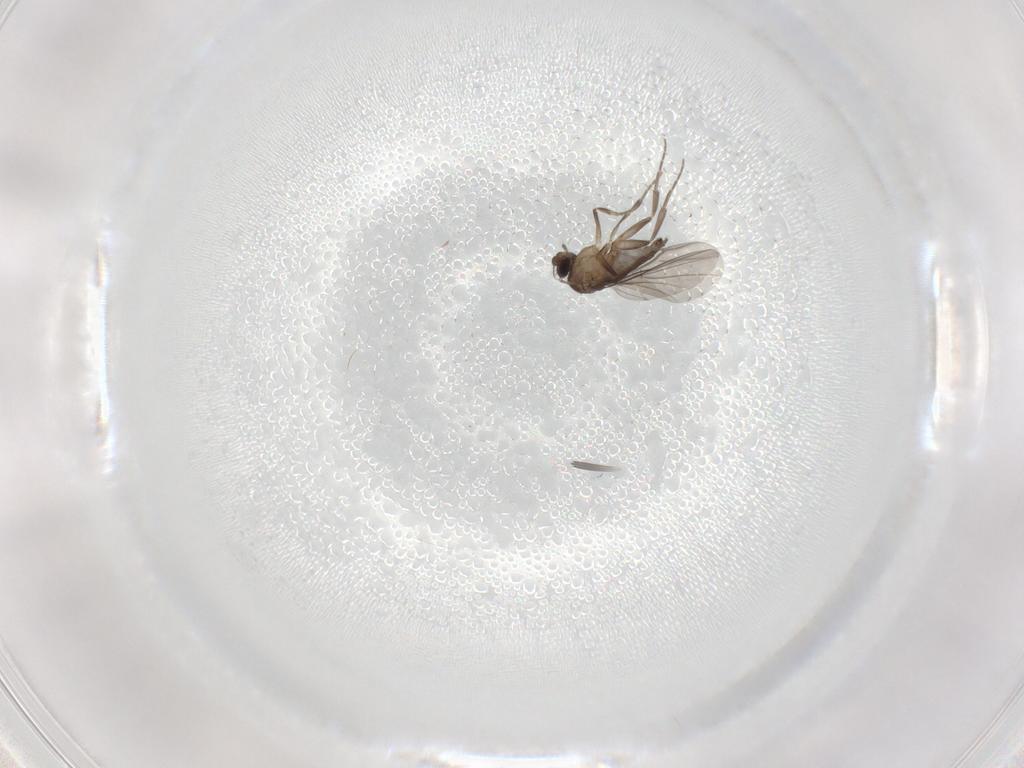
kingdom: Animalia
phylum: Arthropoda
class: Insecta
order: Diptera
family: Phoridae
